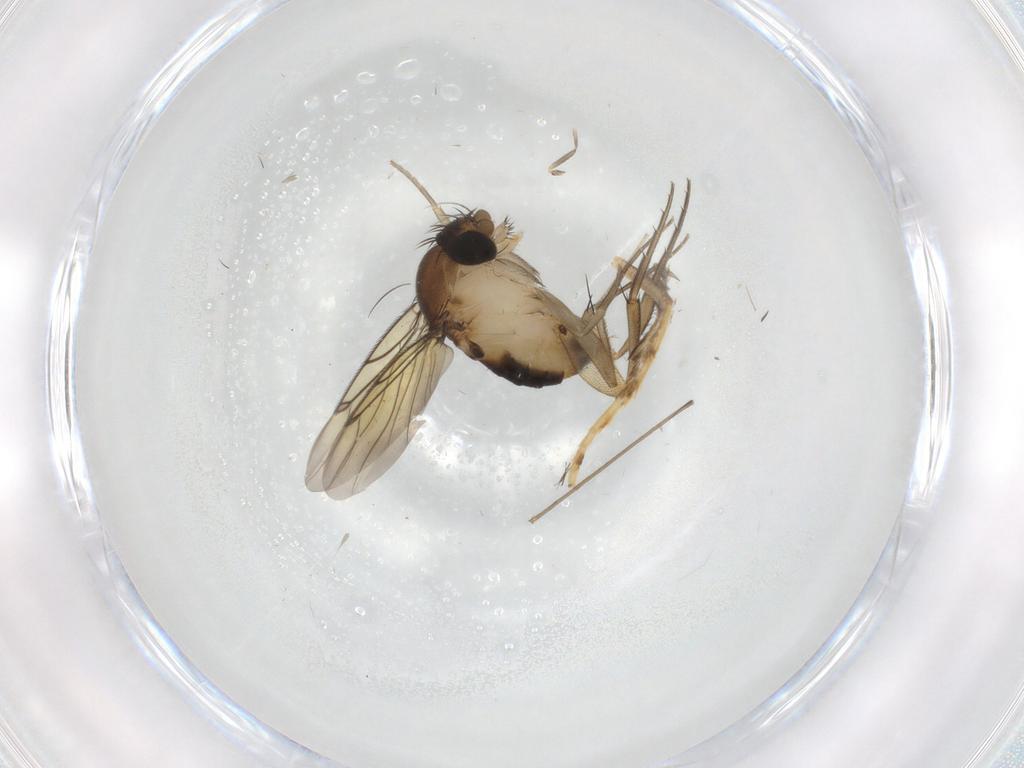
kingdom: Animalia
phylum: Arthropoda
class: Insecta
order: Diptera
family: Cecidomyiidae
